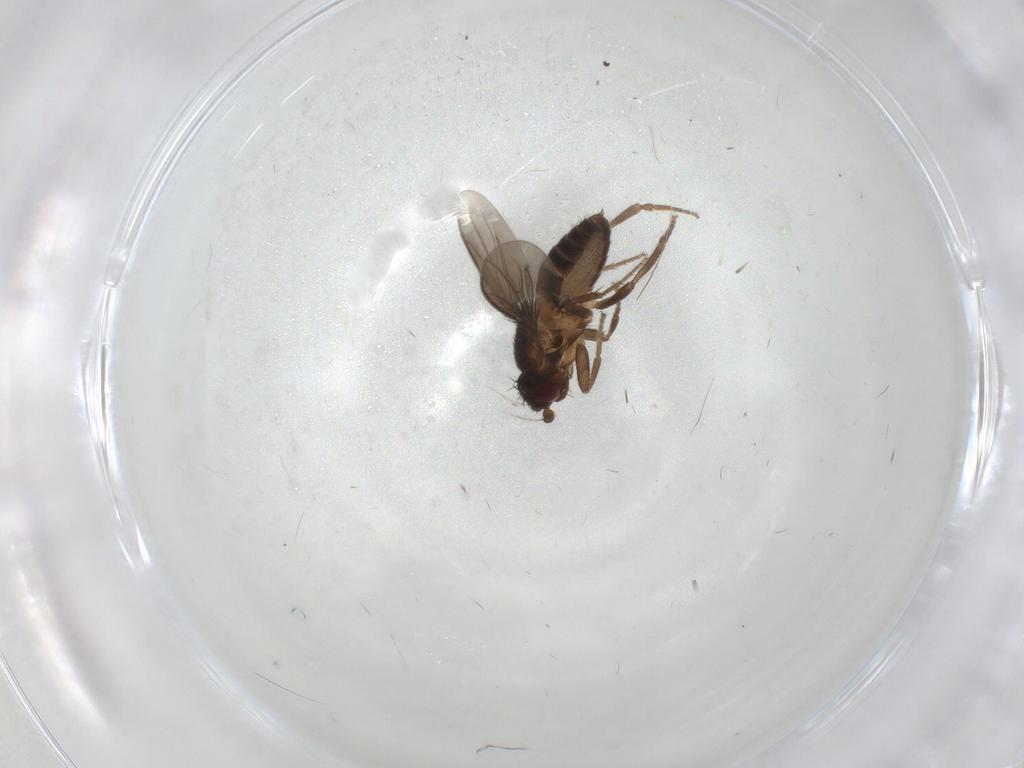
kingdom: Animalia
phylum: Arthropoda
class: Insecta
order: Diptera
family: Sphaeroceridae
